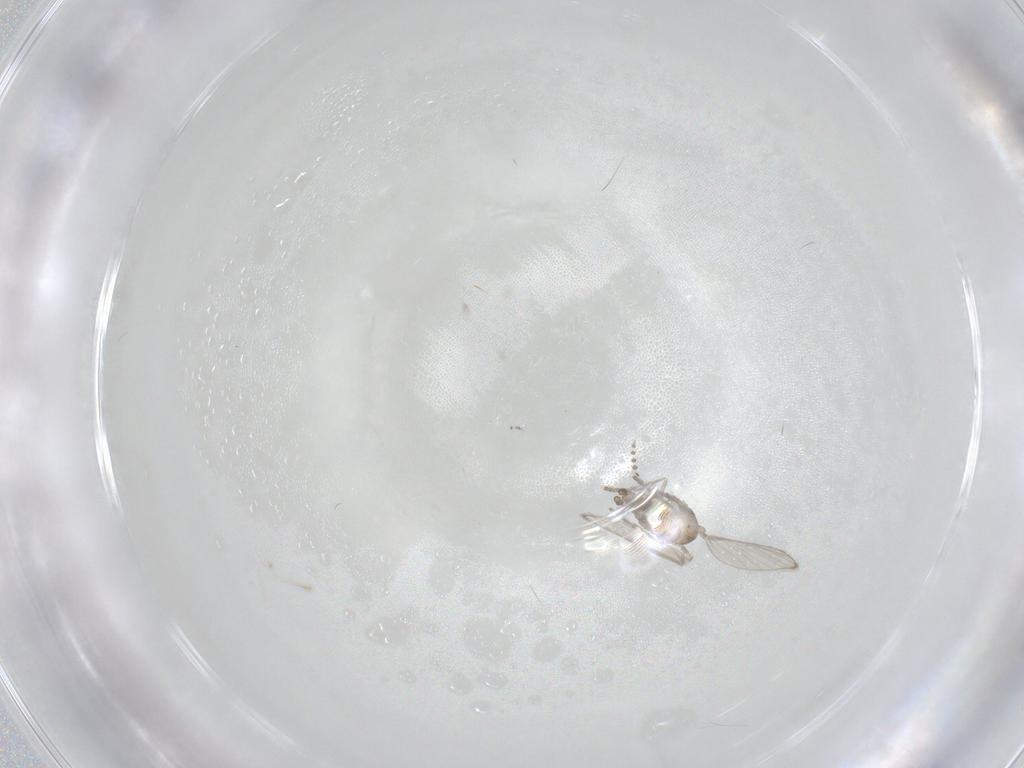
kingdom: Animalia
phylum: Arthropoda
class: Insecta
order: Diptera
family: Psychodidae
